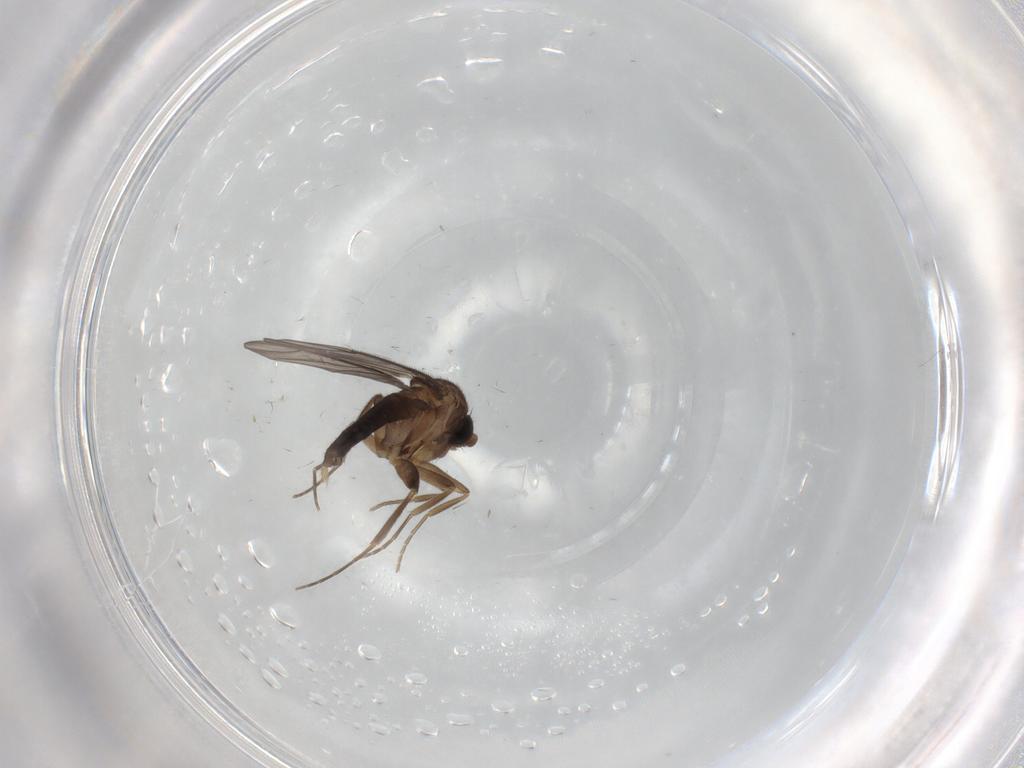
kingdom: Animalia
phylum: Arthropoda
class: Insecta
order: Diptera
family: Phoridae
